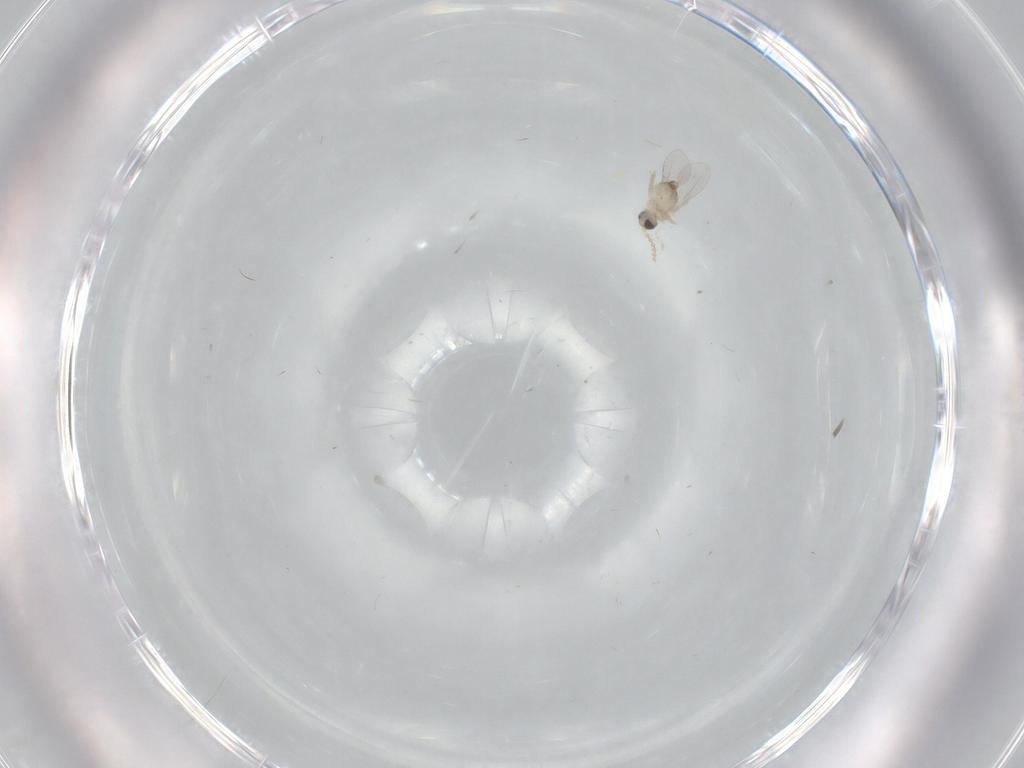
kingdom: Animalia
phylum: Arthropoda
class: Insecta
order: Diptera
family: Cecidomyiidae
